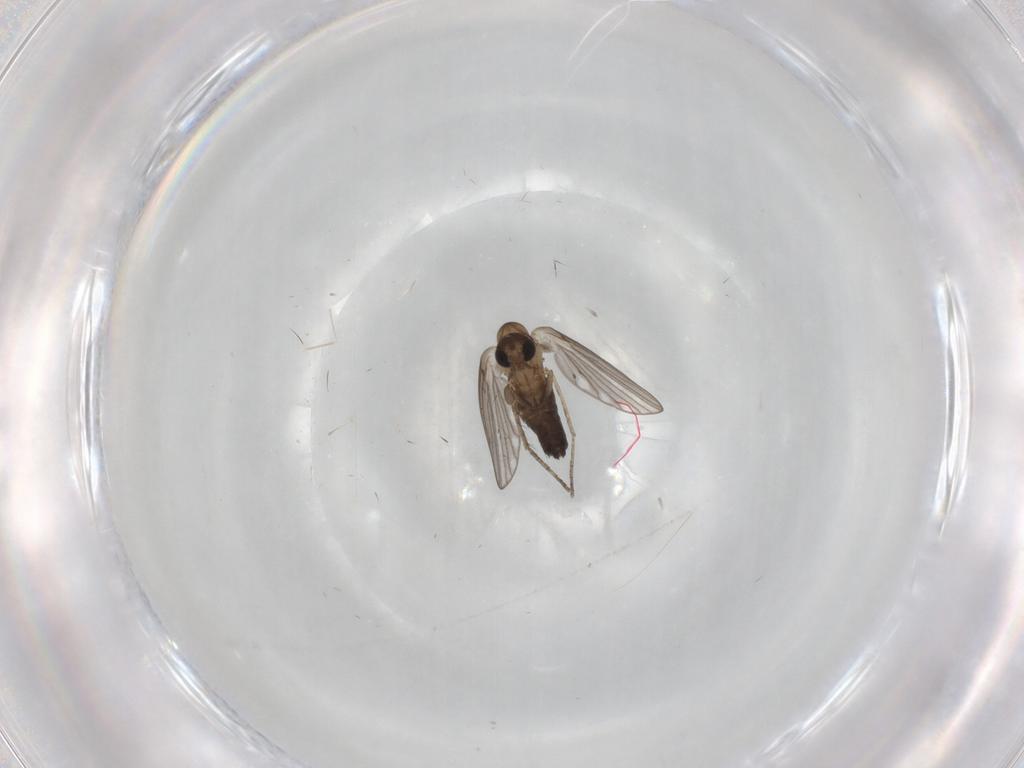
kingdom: Animalia
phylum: Arthropoda
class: Insecta
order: Diptera
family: Psychodidae
